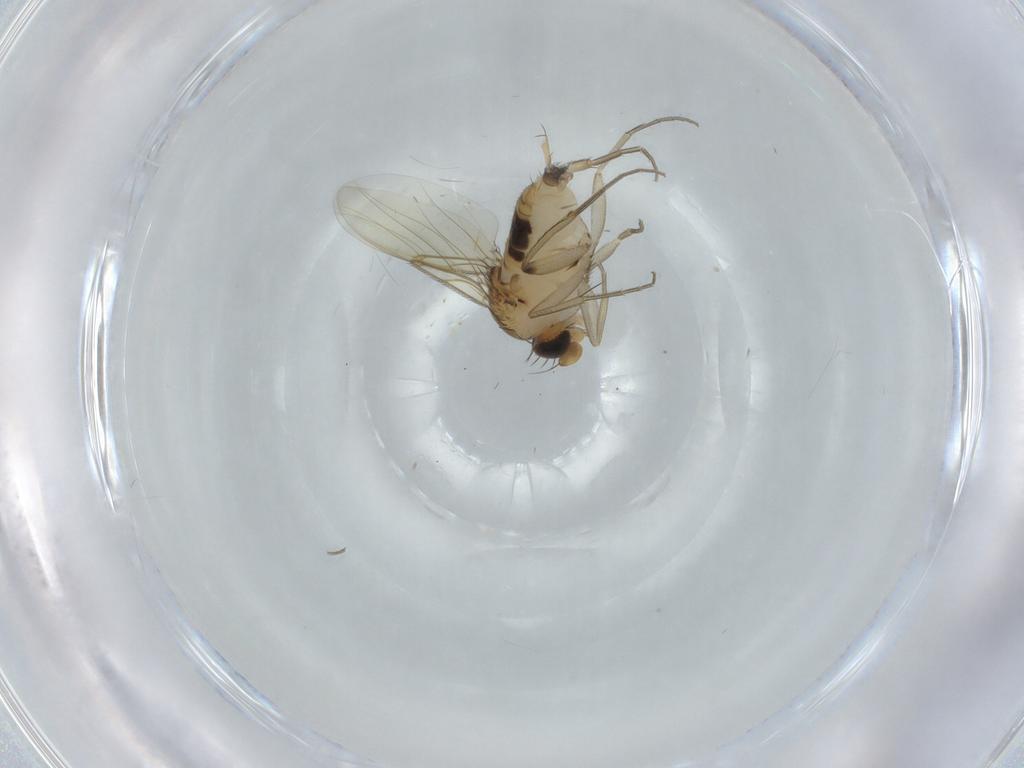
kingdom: Animalia
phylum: Arthropoda
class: Insecta
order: Diptera
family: Phoridae
